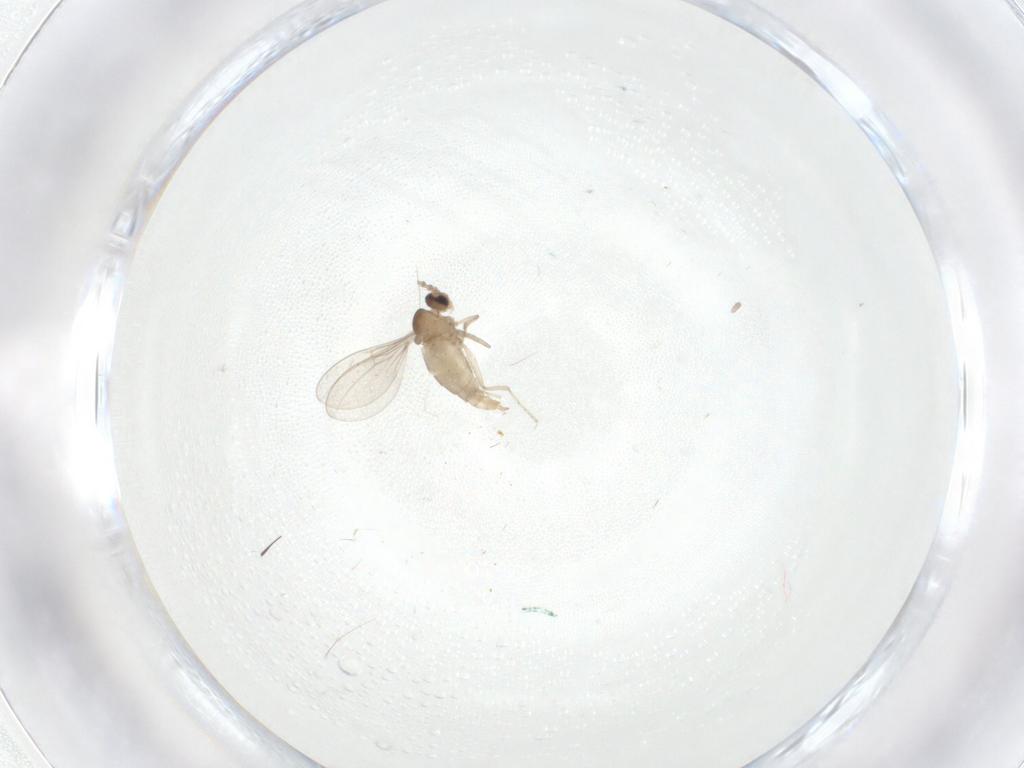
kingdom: Animalia
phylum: Arthropoda
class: Insecta
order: Diptera
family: Cecidomyiidae
